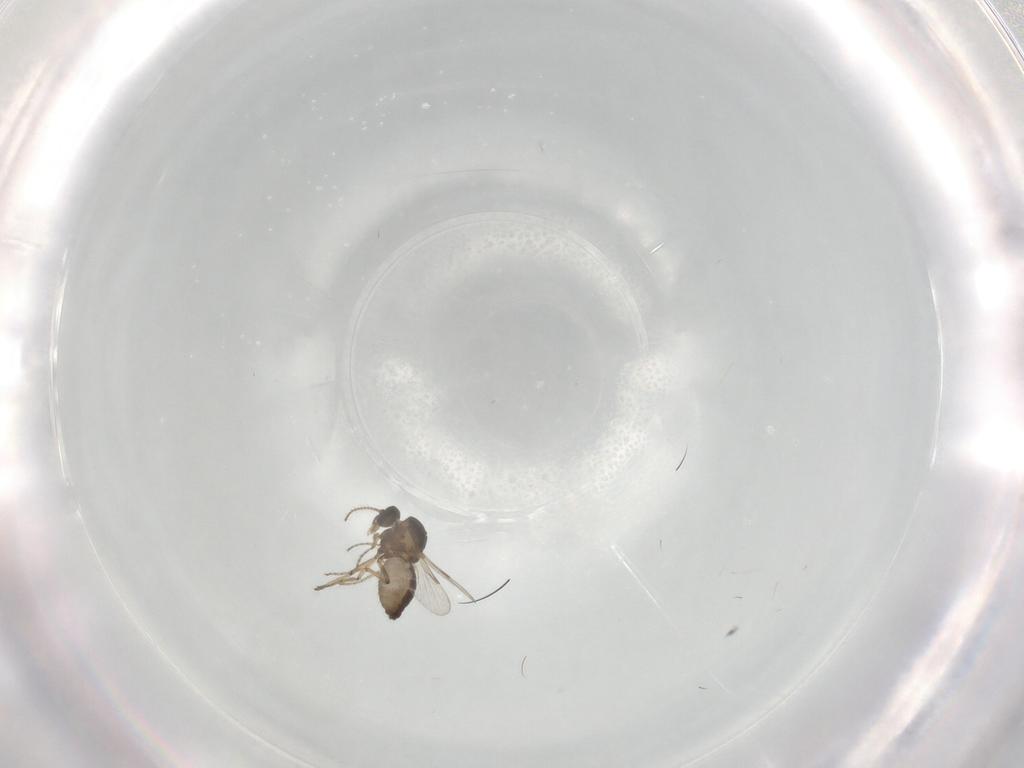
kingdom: Animalia
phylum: Arthropoda
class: Insecta
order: Diptera
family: Ceratopogonidae
